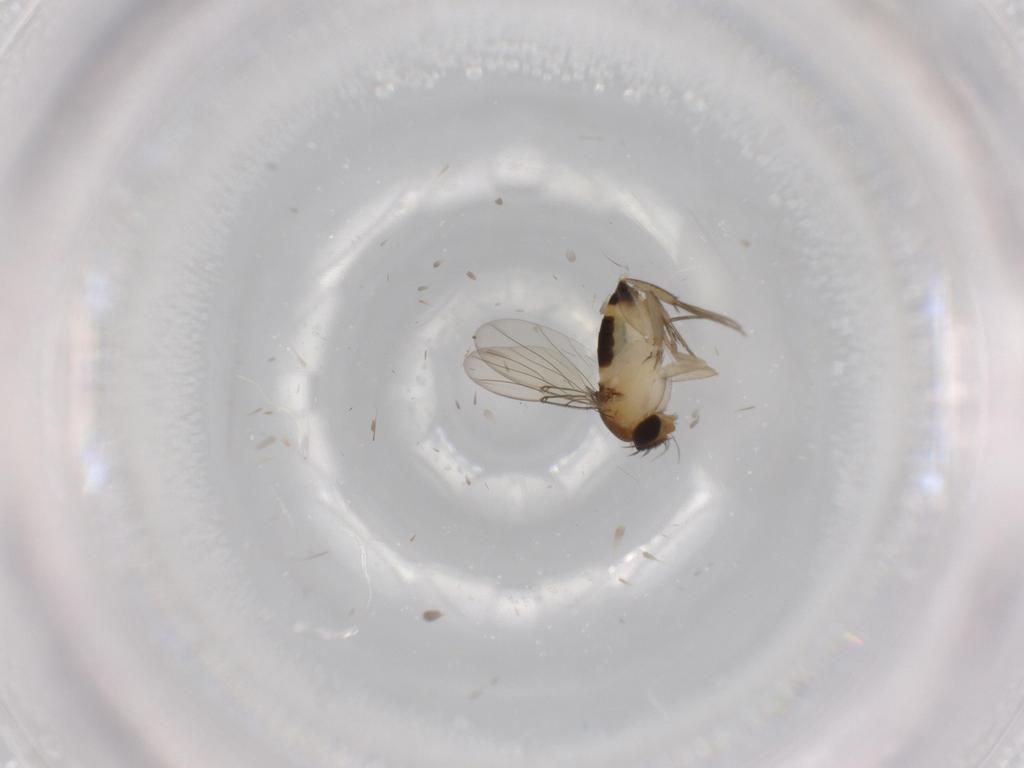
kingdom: Animalia
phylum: Arthropoda
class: Insecta
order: Diptera
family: Phoridae
